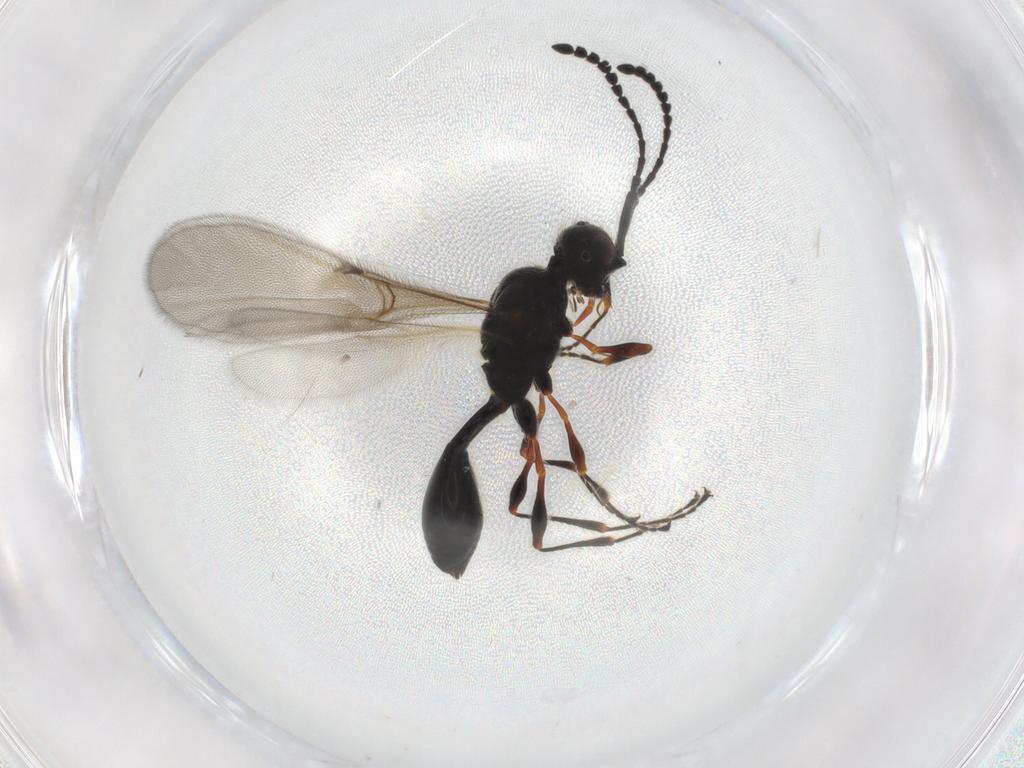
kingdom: Animalia
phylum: Arthropoda
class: Insecta
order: Hymenoptera
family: Diapriidae
